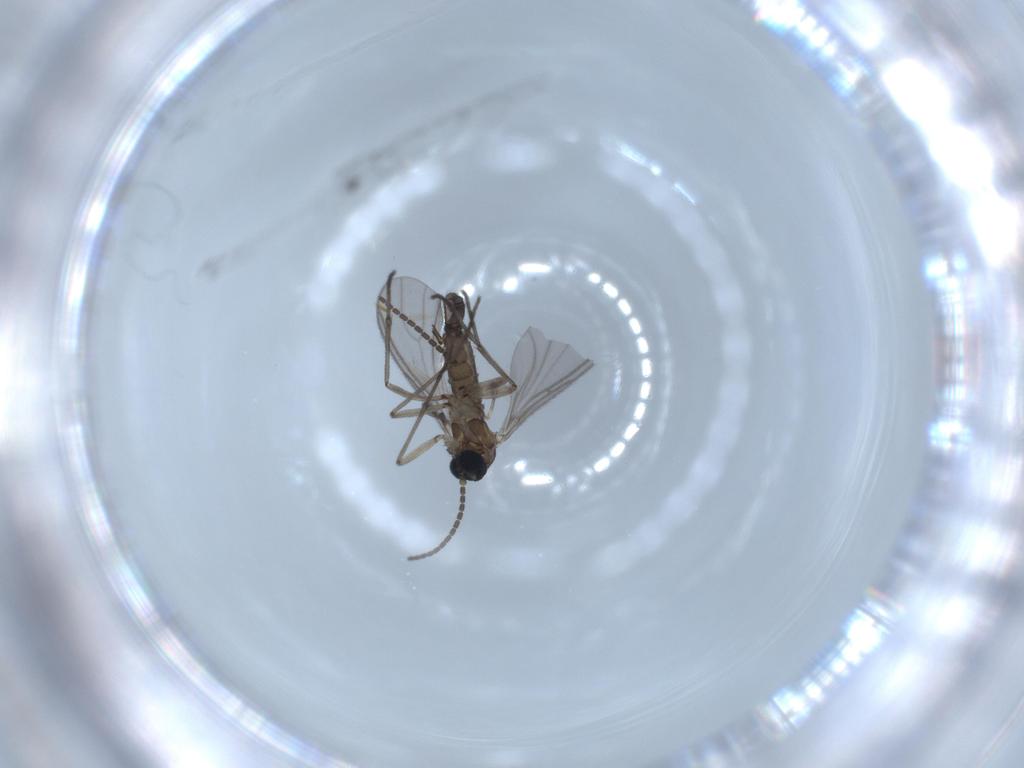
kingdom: Animalia
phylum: Arthropoda
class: Insecta
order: Diptera
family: Sciaridae
